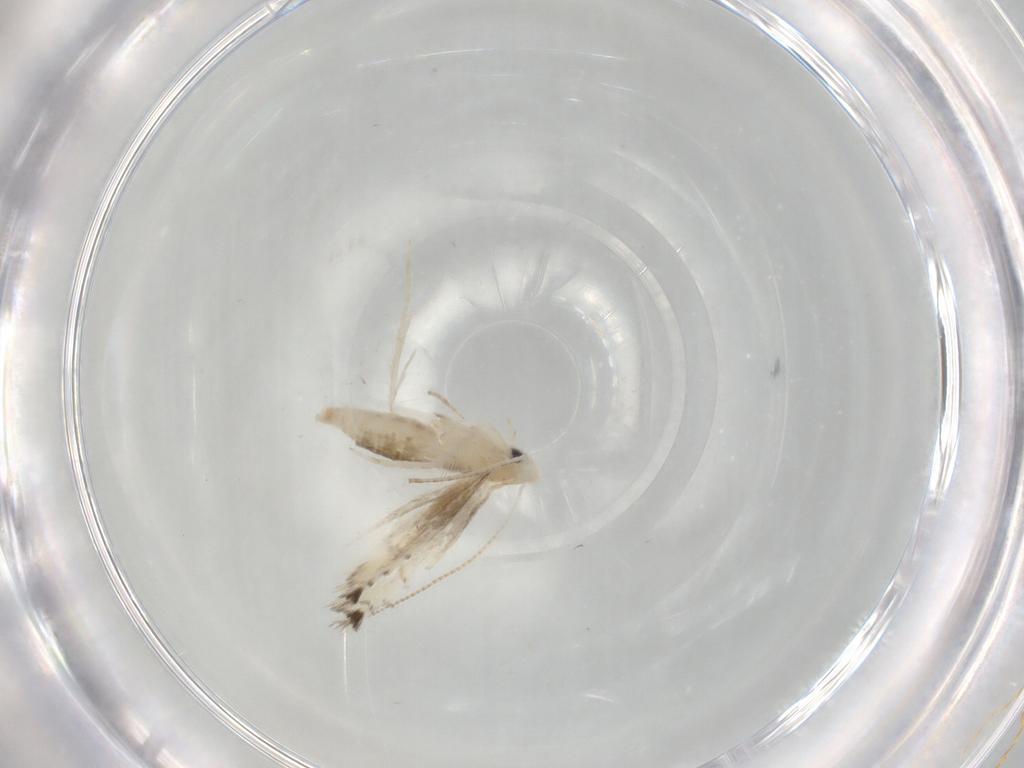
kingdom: Animalia
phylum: Arthropoda
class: Insecta
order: Lepidoptera
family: Gracillariidae
